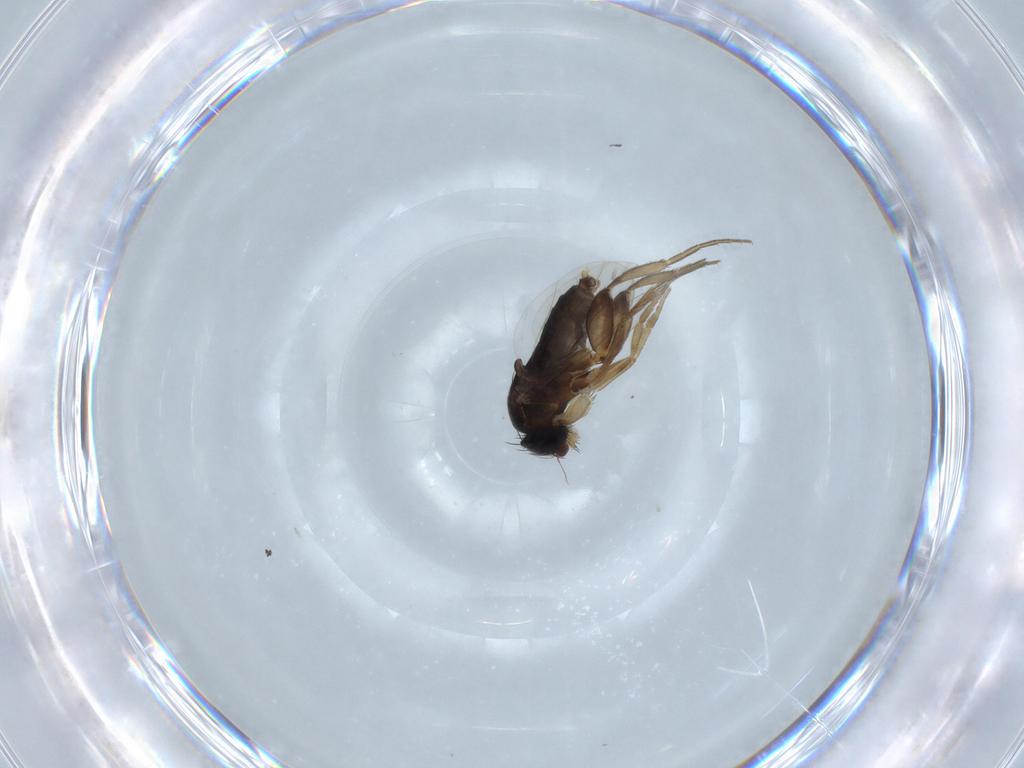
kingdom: Animalia
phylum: Arthropoda
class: Insecta
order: Diptera
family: Phoridae
